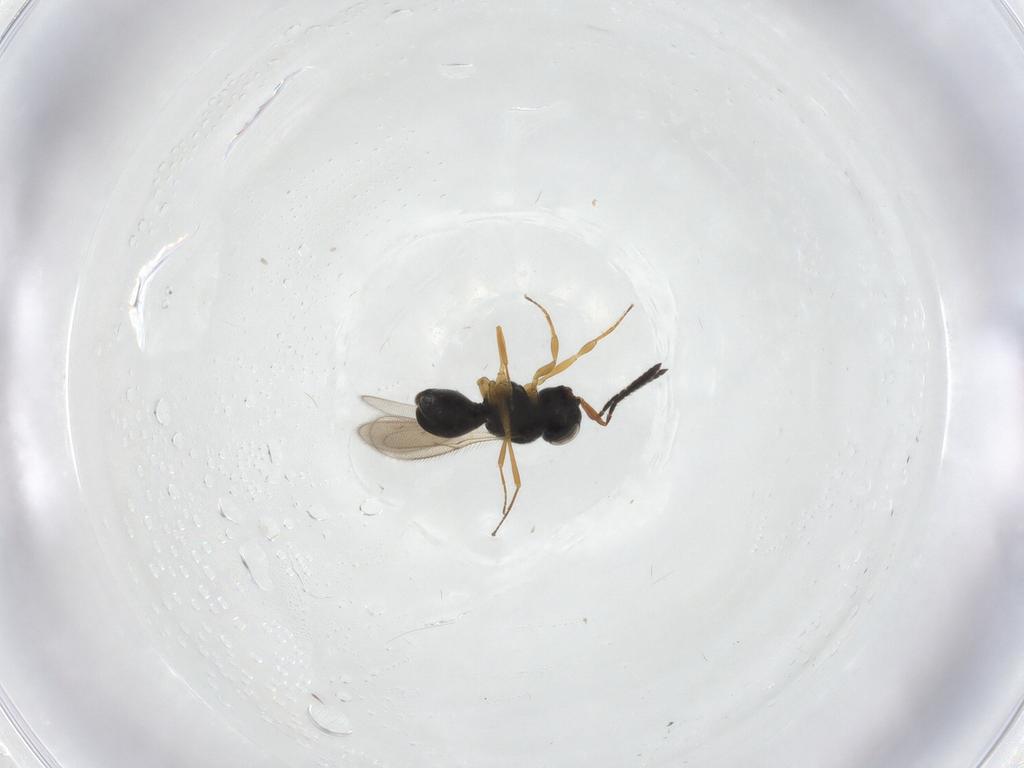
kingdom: Animalia
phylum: Arthropoda
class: Insecta
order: Hymenoptera
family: Scelionidae
